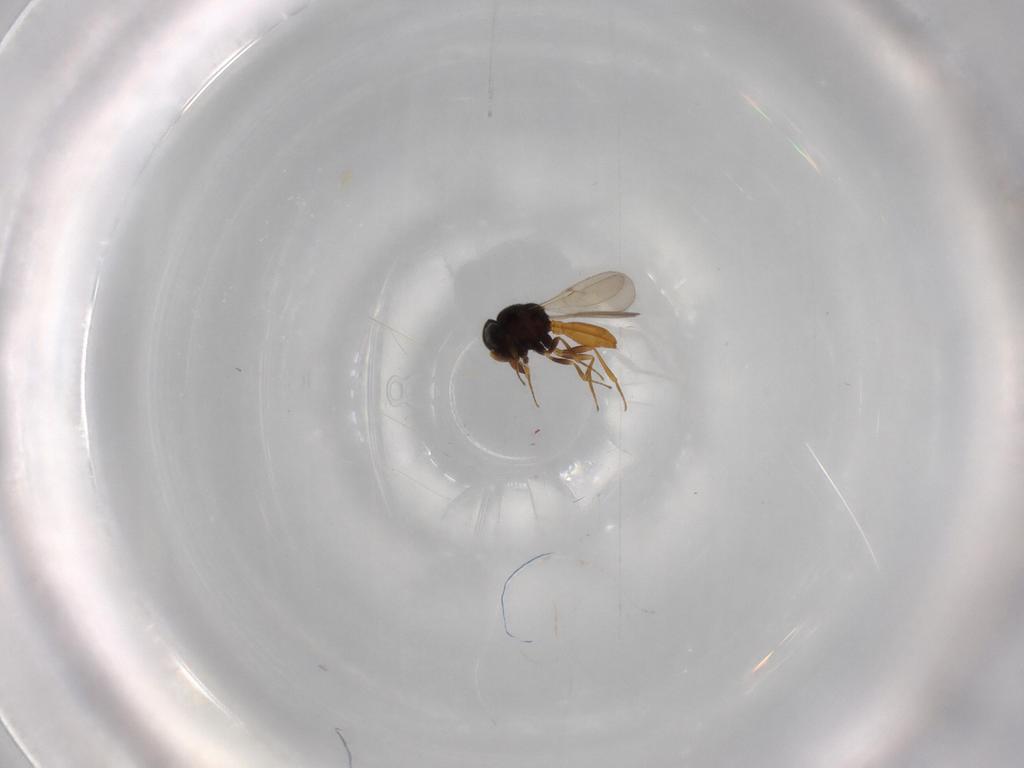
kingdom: Animalia
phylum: Arthropoda
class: Insecta
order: Hymenoptera
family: Scelionidae
